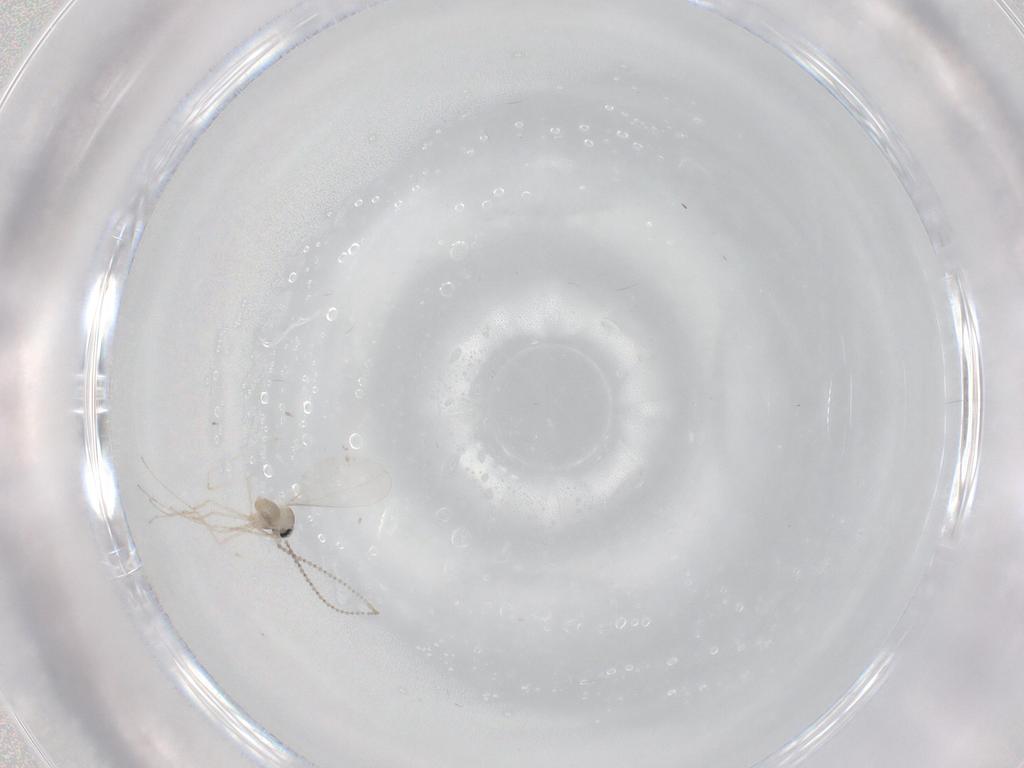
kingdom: Animalia
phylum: Arthropoda
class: Insecta
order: Diptera
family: Cecidomyiidae
